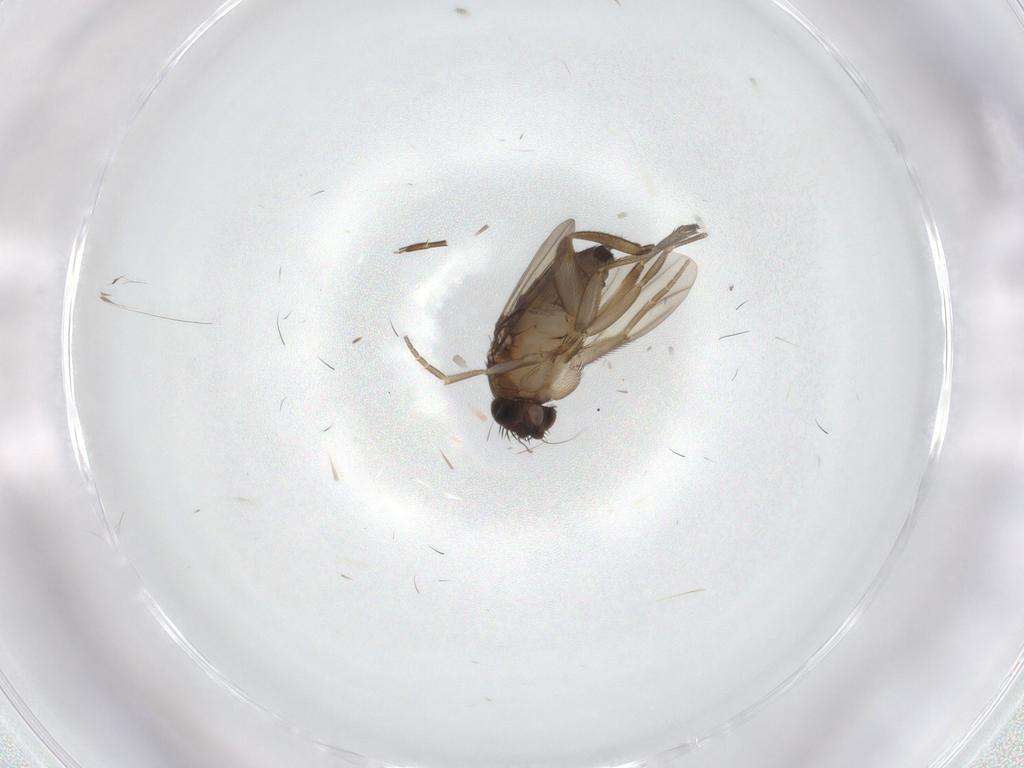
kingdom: Animalia
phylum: Arthropoda
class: Insecta
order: Diptera
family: Phoridae
